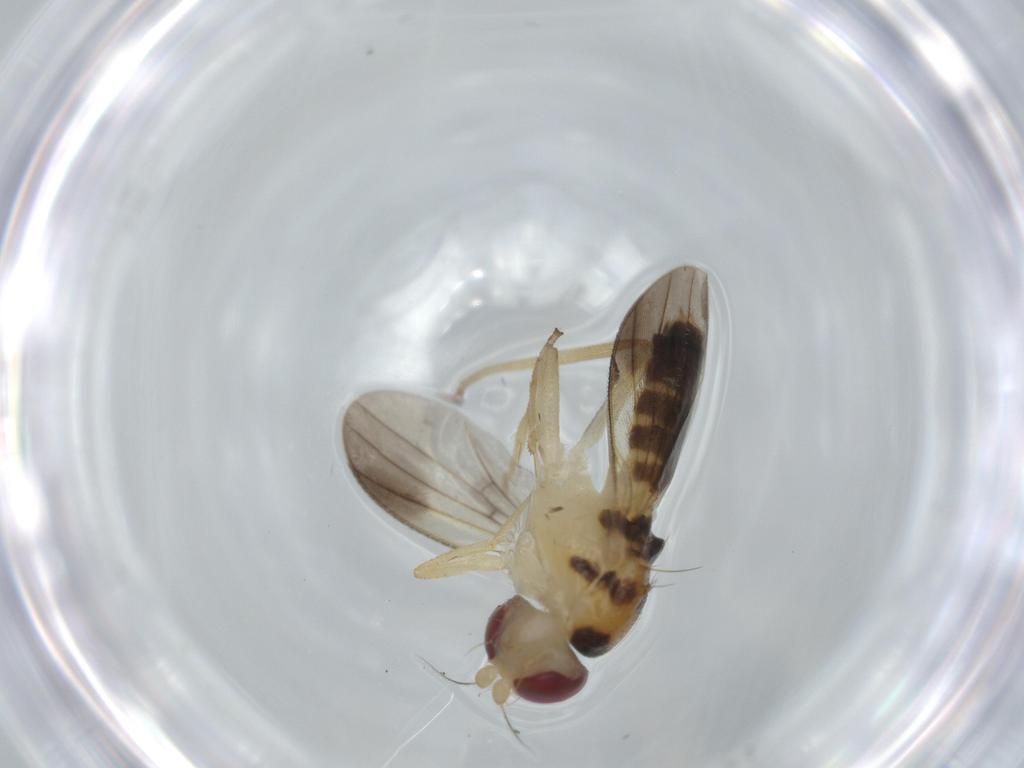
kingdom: Animalia
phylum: Arthropoda
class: Insecta
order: Diptera
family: Clusiidae
